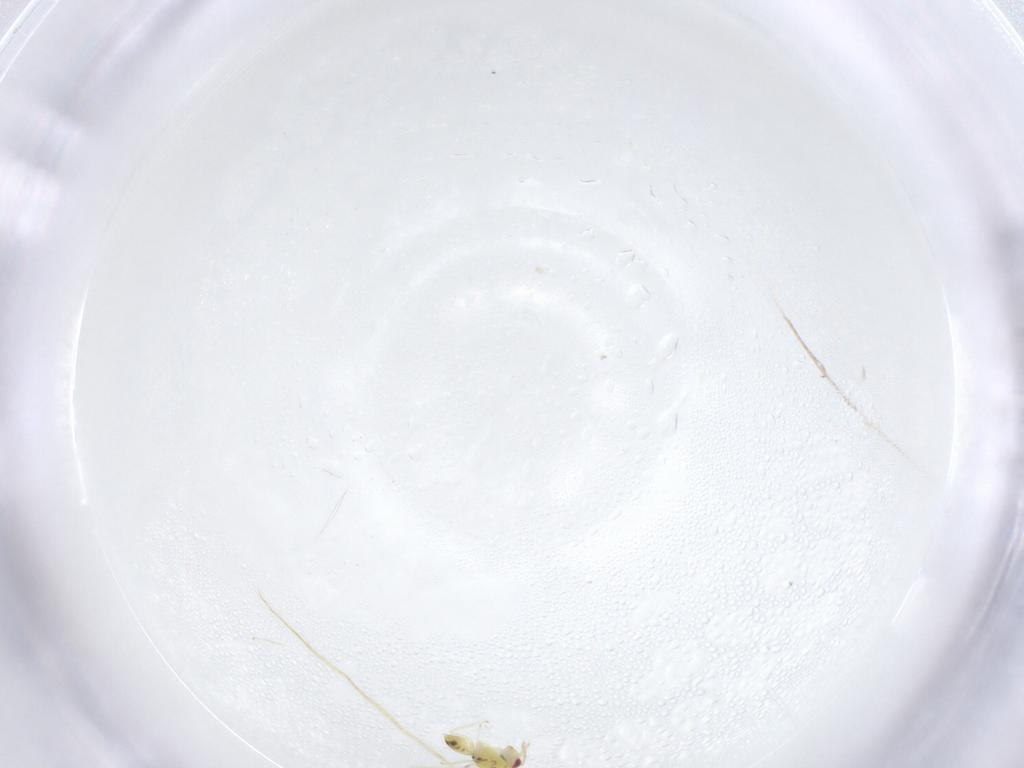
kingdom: Animalia
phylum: Arthropoda
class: Insecta
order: Hymenoptera
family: Eulophidae
